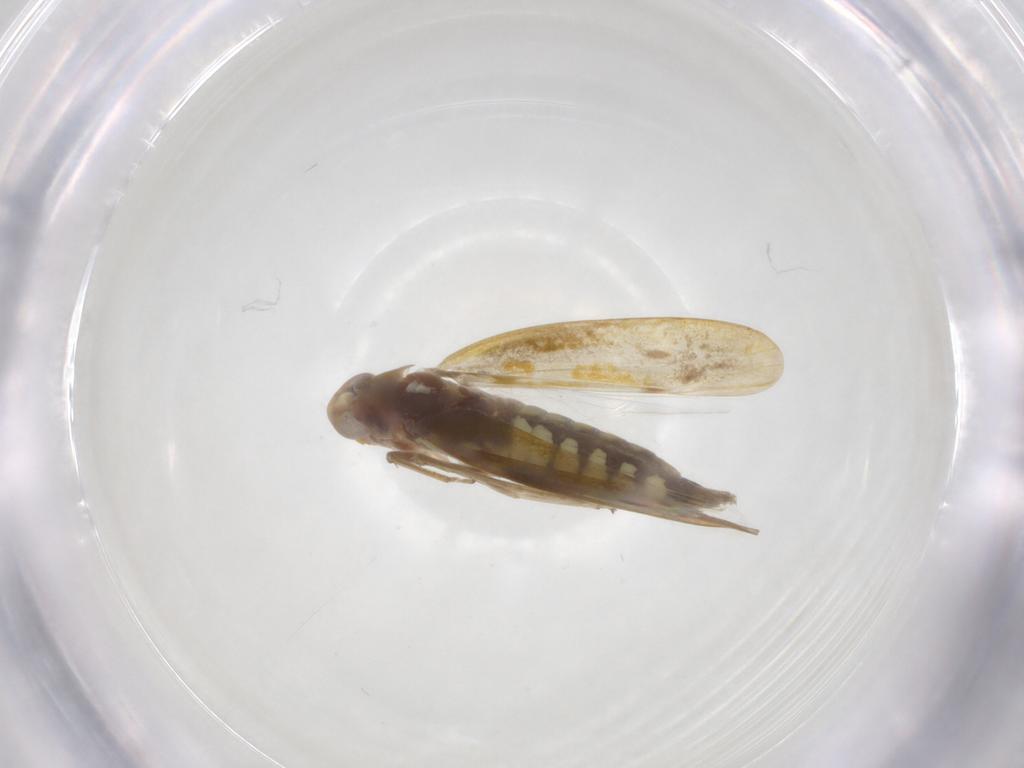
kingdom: Animalia
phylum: Arthropoda
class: Insecta
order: Hemiptera
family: Cicadellidae
